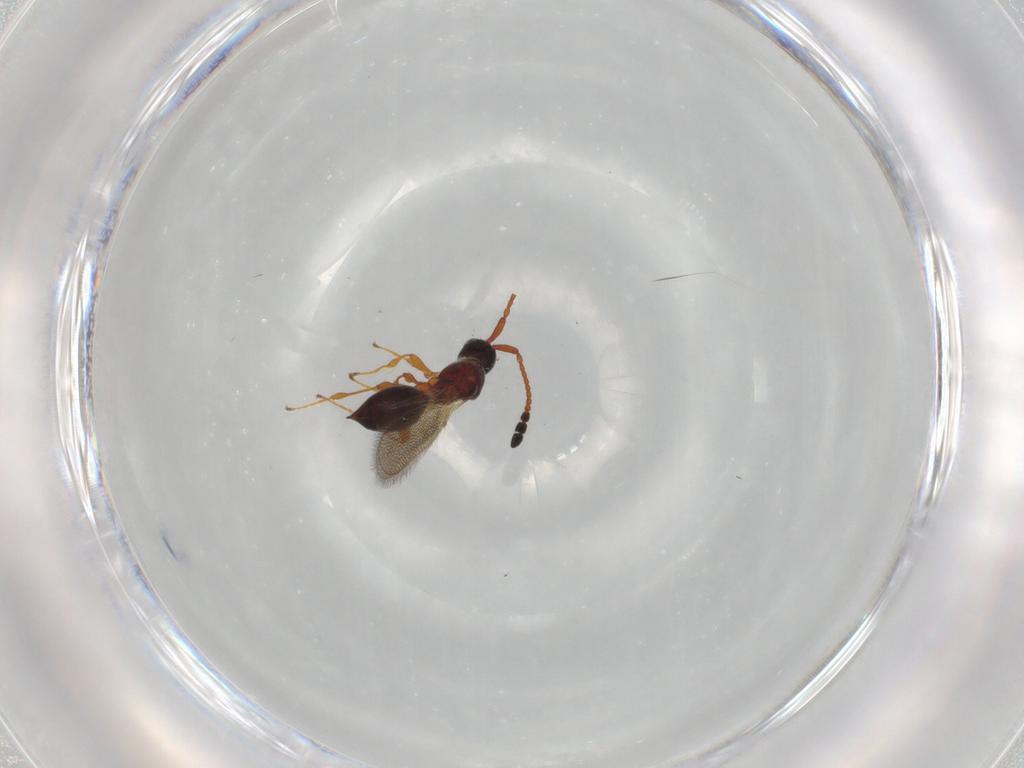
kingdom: Animalia
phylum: Arthropoda
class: Insecta
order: Hymenoptera
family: Diapriidae
